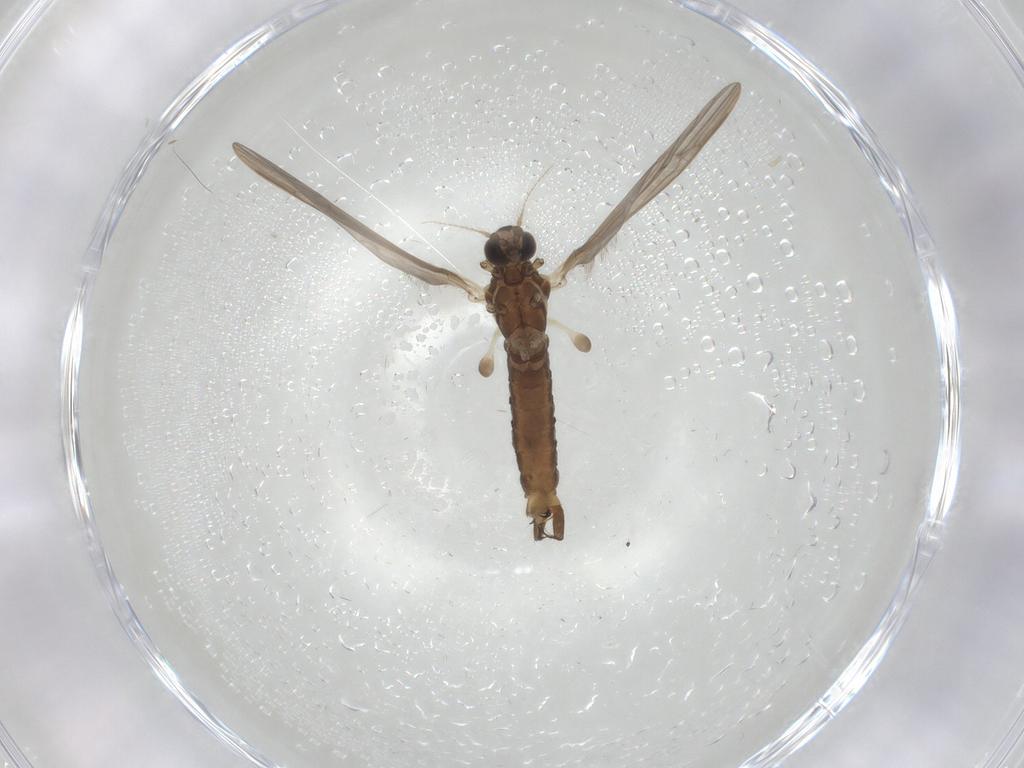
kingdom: Animalia
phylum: Arthropoda
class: Insecta
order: Diptera
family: Limoniidae
